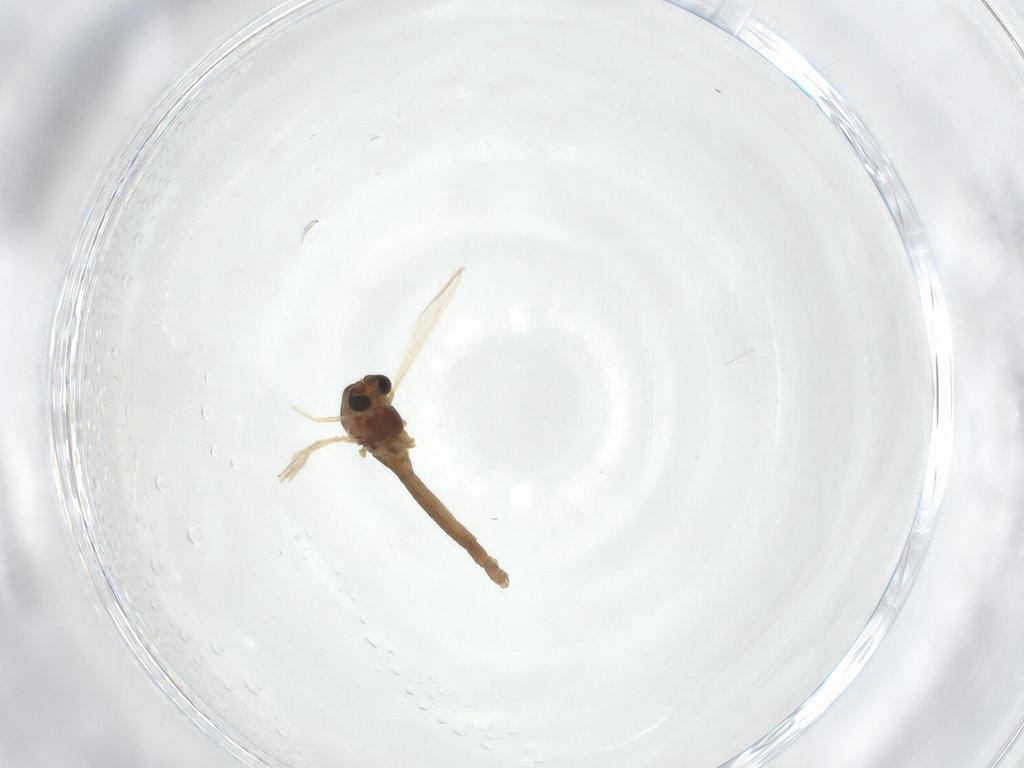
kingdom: Animalia
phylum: Arthropoda
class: Insecta
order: Diptera
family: Chironomidae
